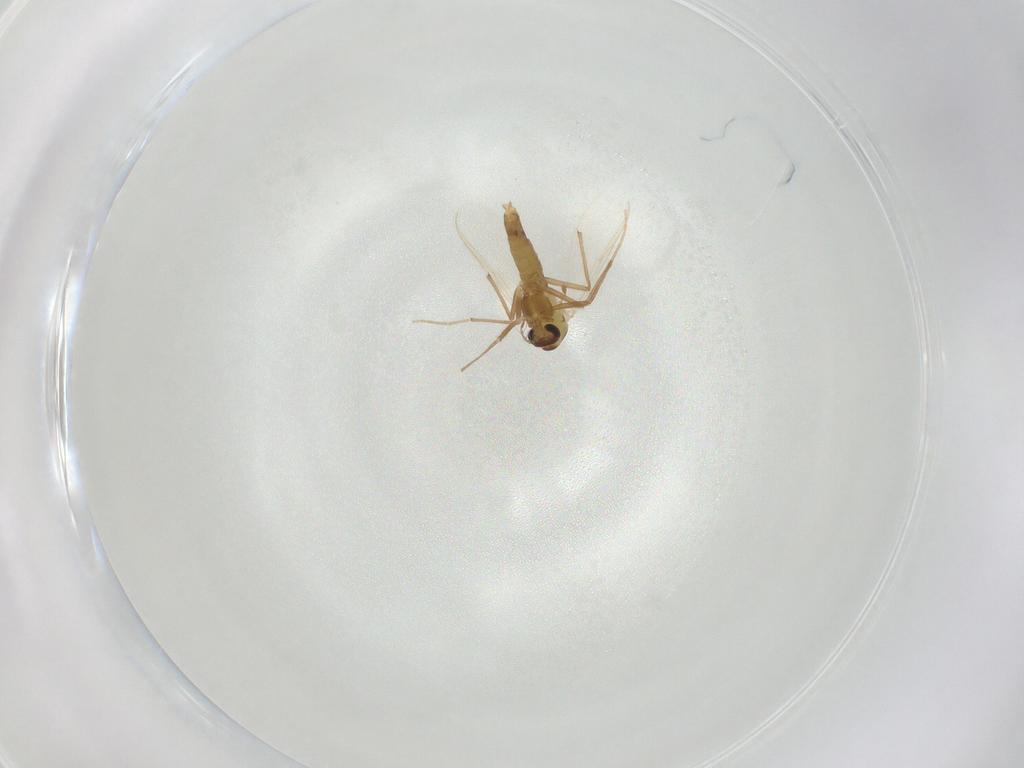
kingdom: Animalia
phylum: Arthropoda
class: Insecta
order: Diptera
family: Chironomidae
